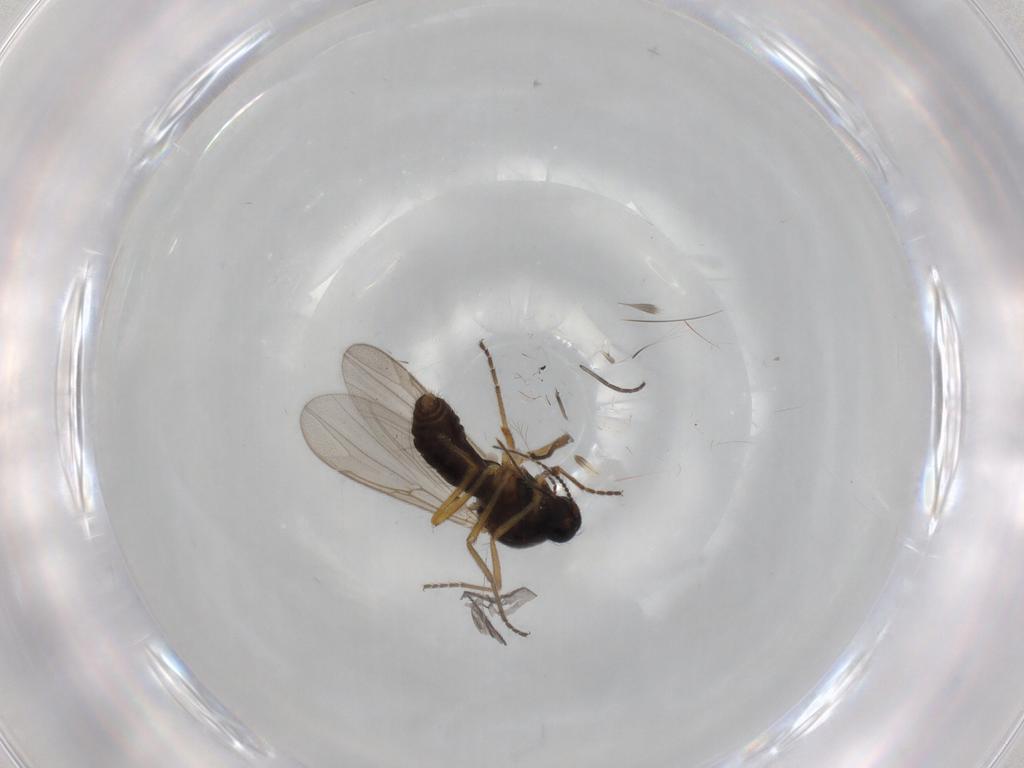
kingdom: Animalia
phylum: Arthropoda
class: Insecta
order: Diptera
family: Ceratopogonidae
